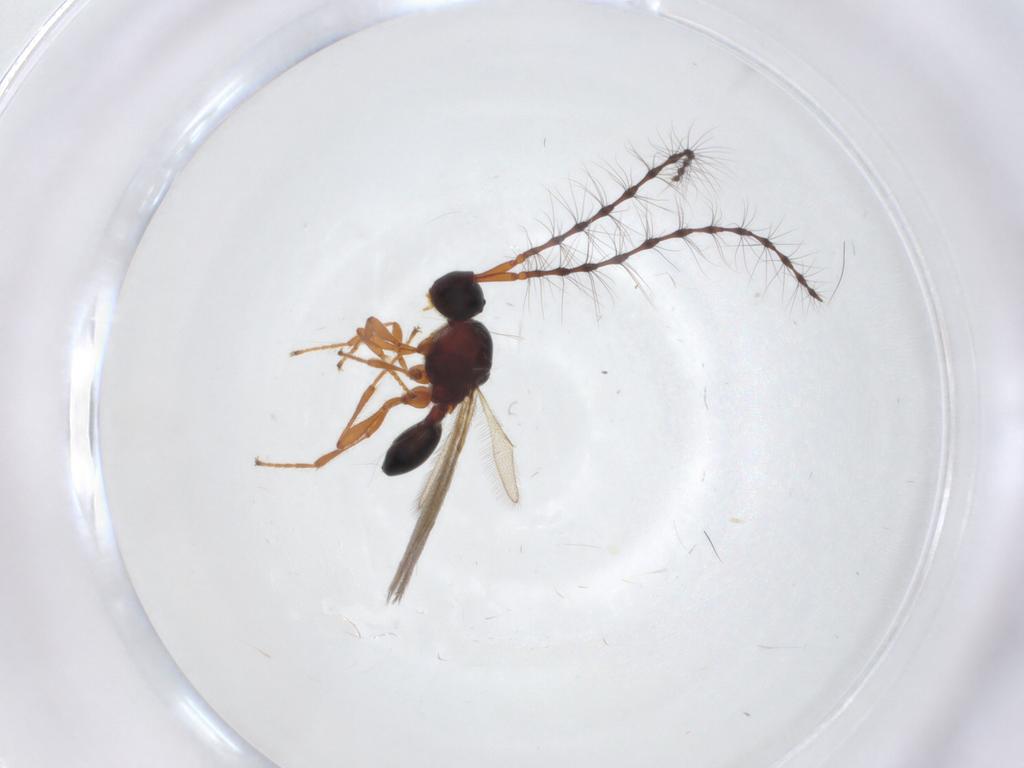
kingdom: Animalia
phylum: Arthropoda
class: Insecta
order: Hymenoptera
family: Diapriidae
